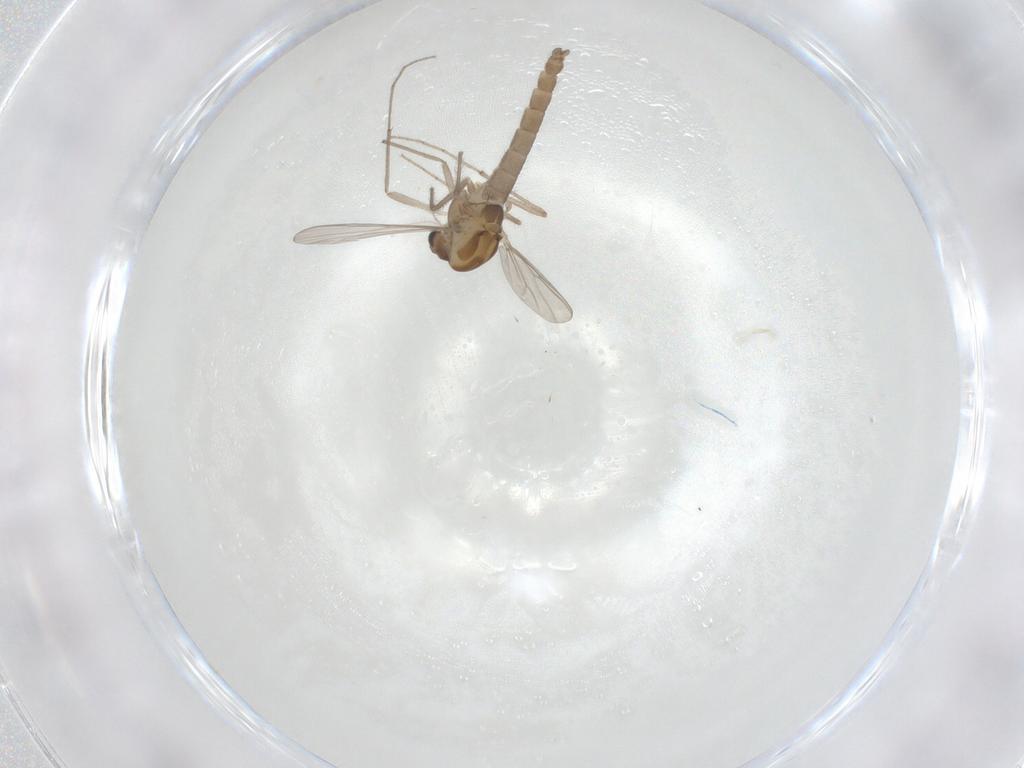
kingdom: Animalia
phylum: Arthropoda
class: Insecta
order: Diptera
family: Chironomidae
